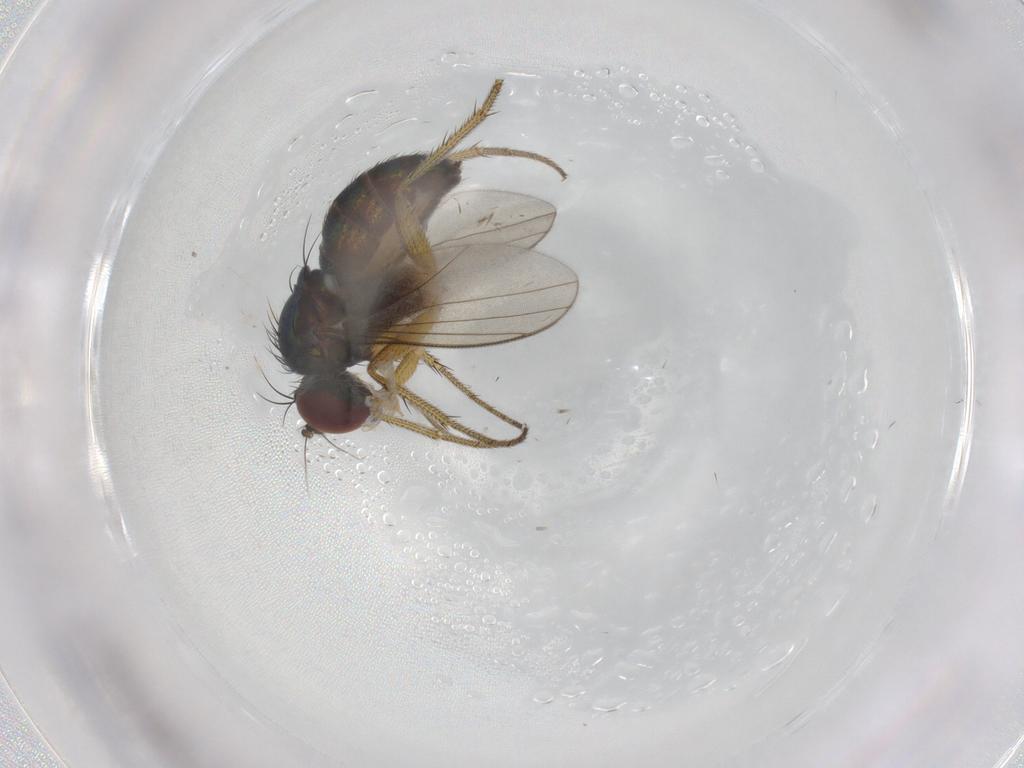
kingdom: Animalia
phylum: Arthropoda
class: Insecta
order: Diptera
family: Dolichopodidae
